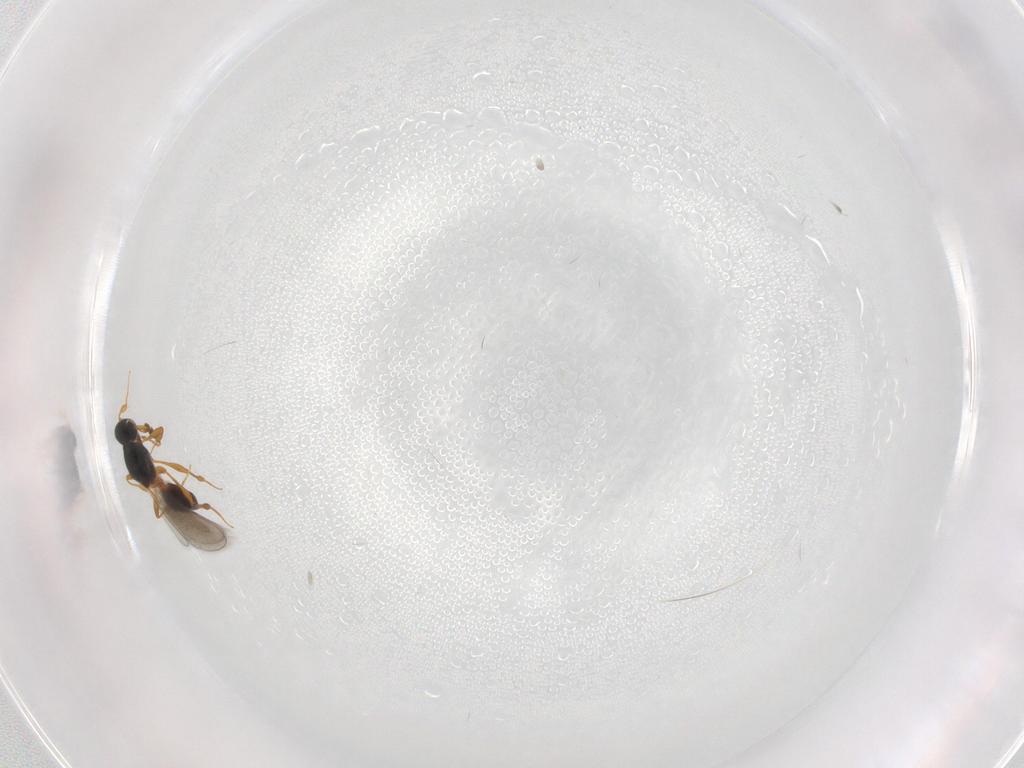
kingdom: Animalia
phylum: Arthropoda
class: Insecta
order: Hymenoptera
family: Platygastridae
